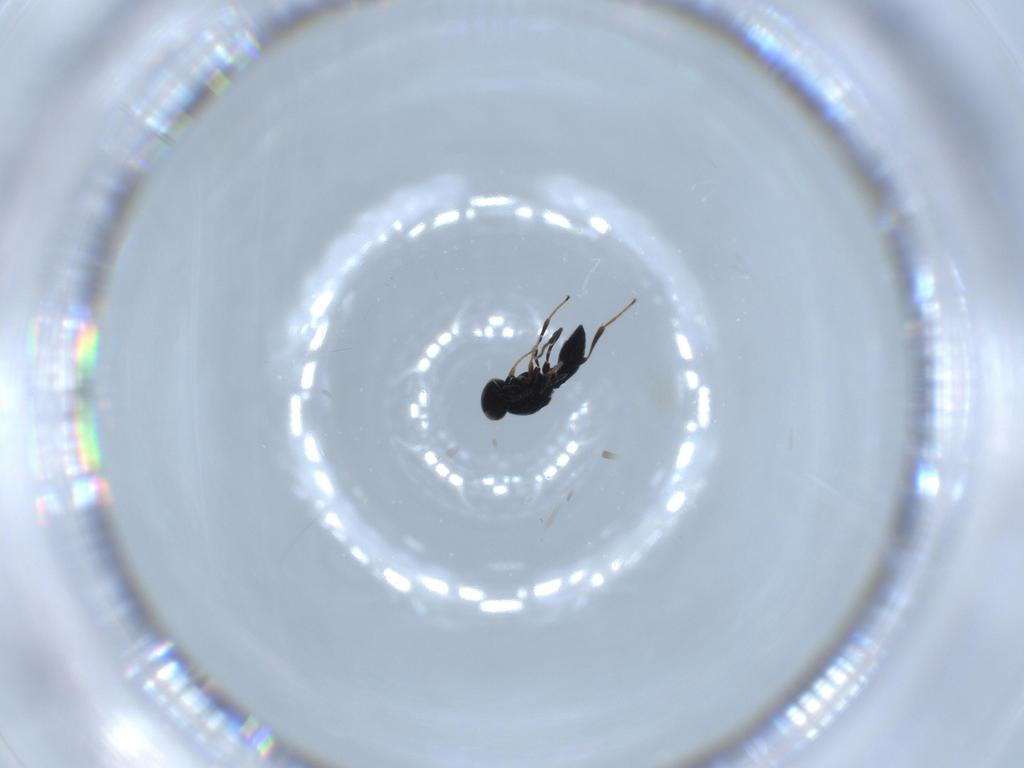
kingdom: Animalia
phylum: Arthropoda
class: Insecta
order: Hymenoptera
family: Platygastridae
